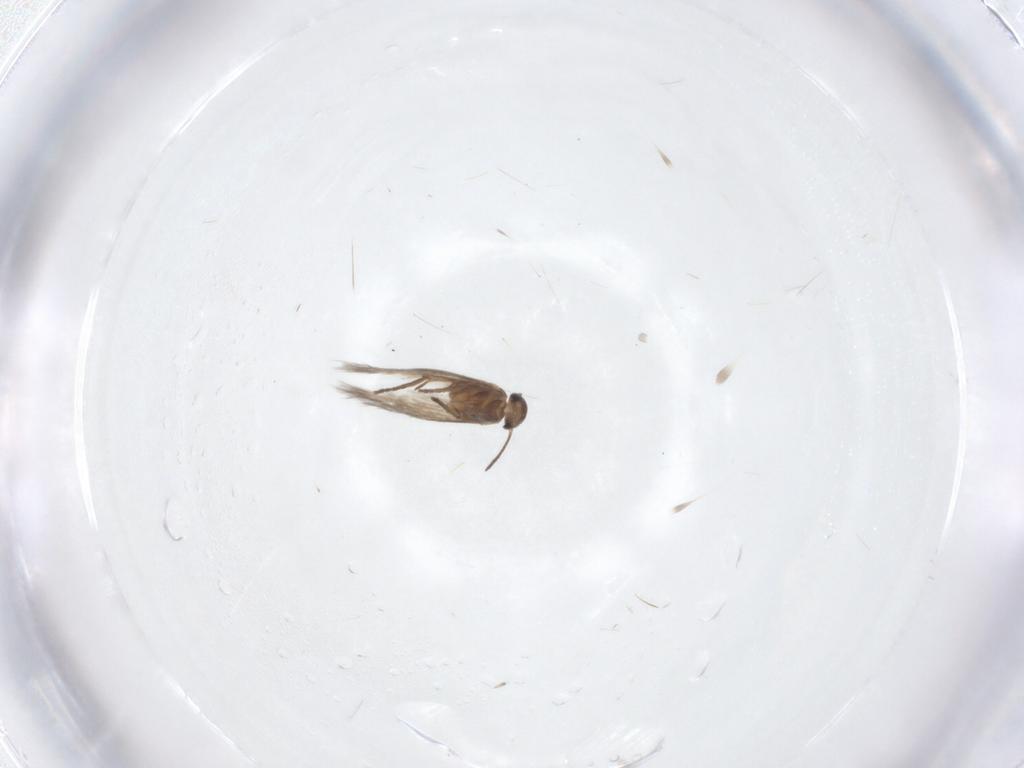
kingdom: Animalia
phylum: Arthropoda
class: Insecta
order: Lepidoptera
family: Heliozelidae
